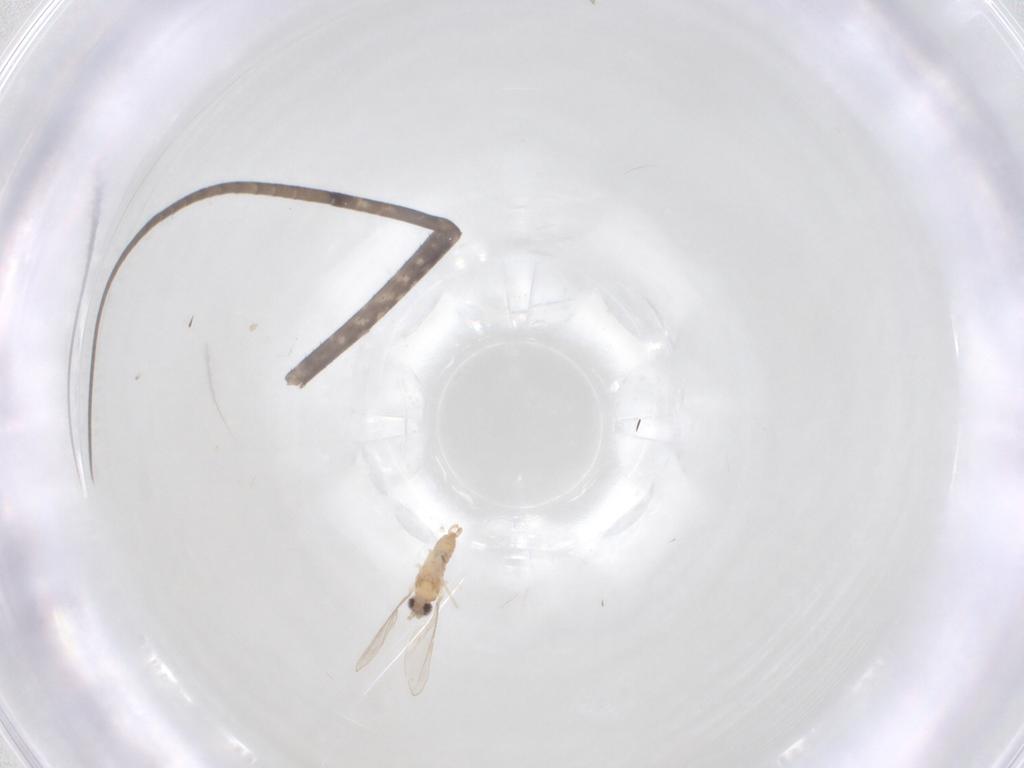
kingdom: Animalia
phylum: Arthropoda
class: Insecta
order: Diptera
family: Cecidomyiidae
